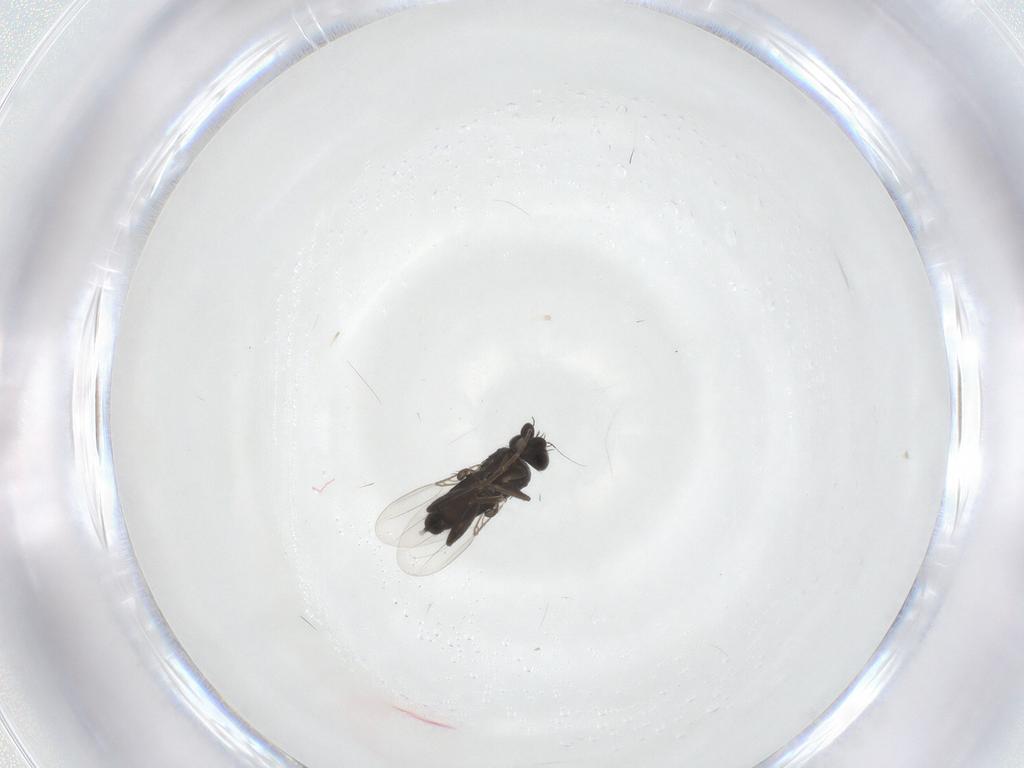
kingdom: Animalia
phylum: Arthropoda
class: Insecta
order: Diptera
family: Phoridae
